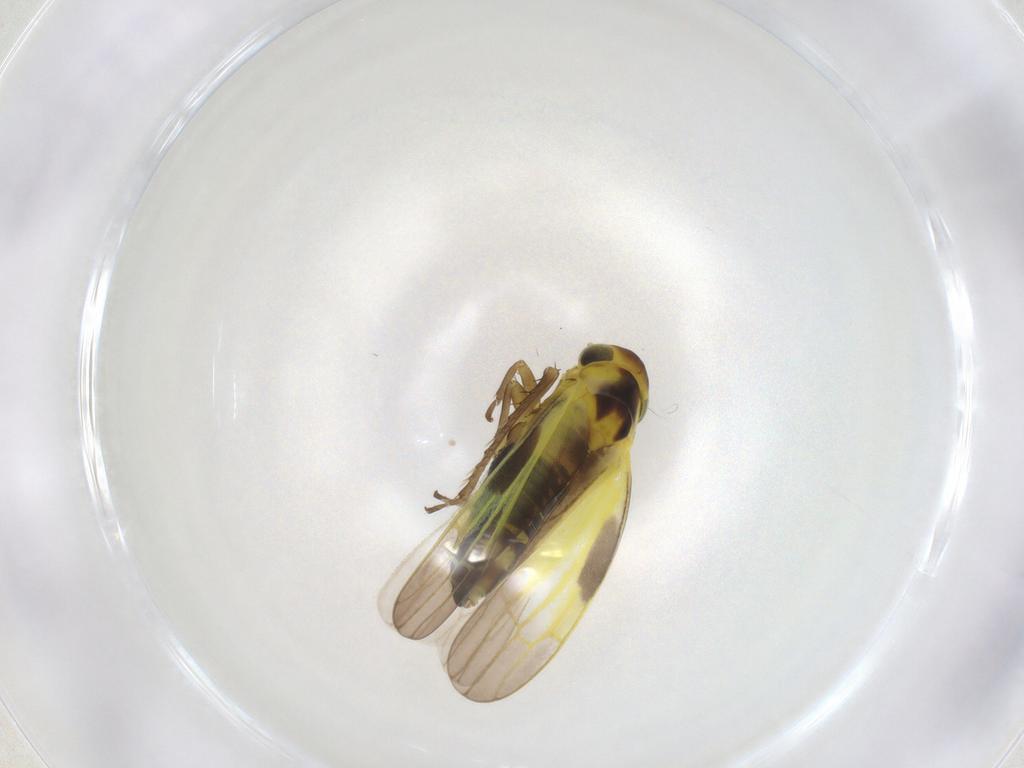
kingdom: Animalia
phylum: Arthropoda
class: Insecta
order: Hemiptera
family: Cicadellidae
